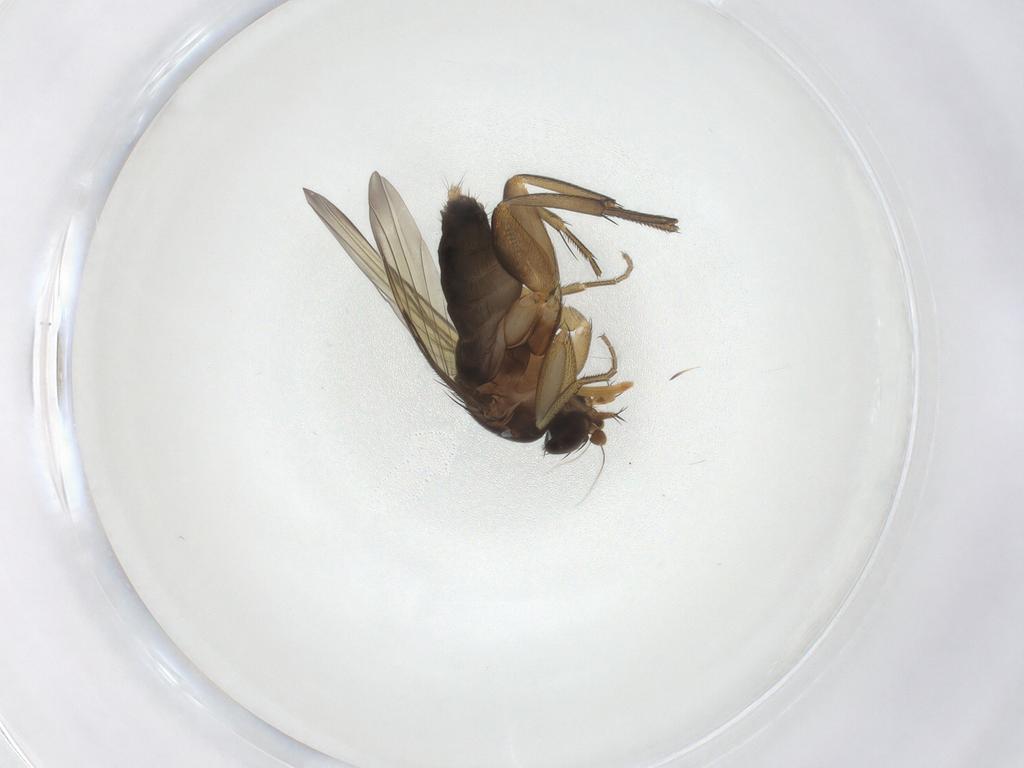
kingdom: Animalia
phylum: Arthropoda
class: Insecta
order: Diptera
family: Phoridae
